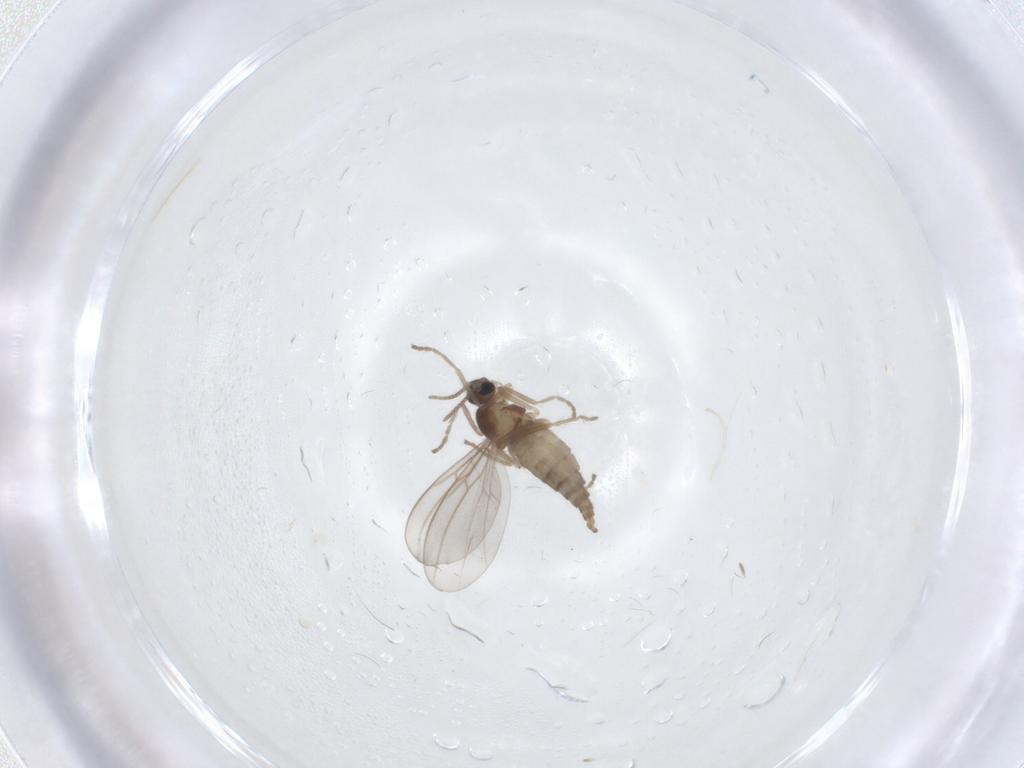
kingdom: Animalia
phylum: Arthropoda
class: Insecta
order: Diptera
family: Cecidomyiidae
